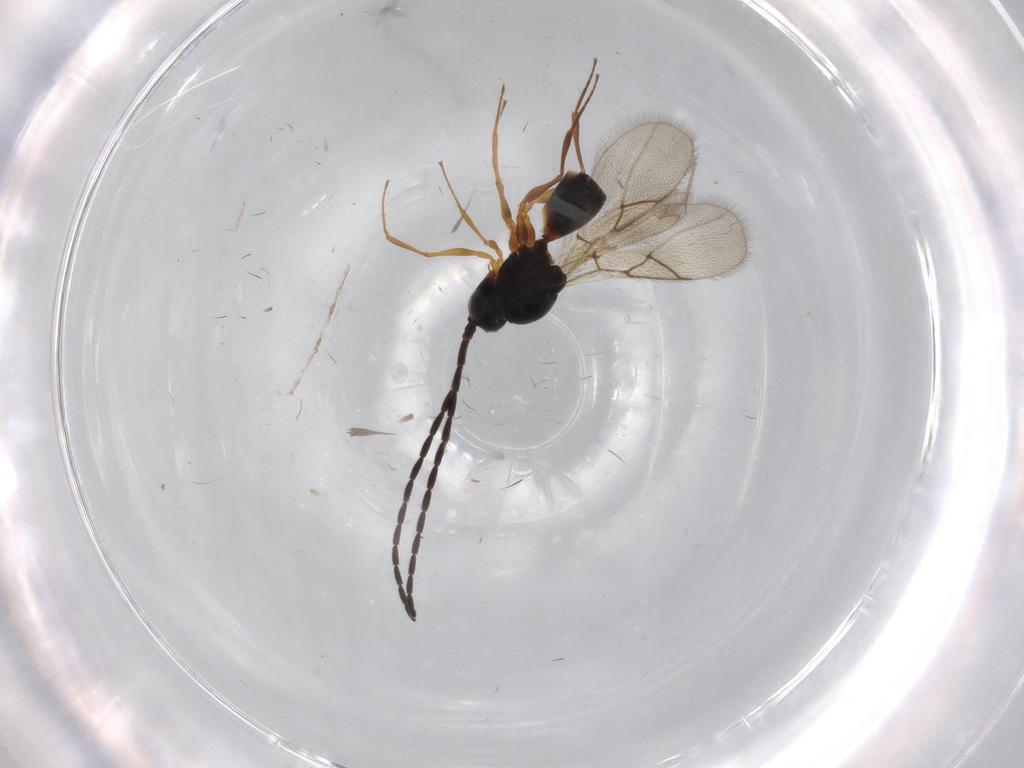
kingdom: Animalia
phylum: Arthropoda
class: Insecta
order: Hymenoptera
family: Figitidae
